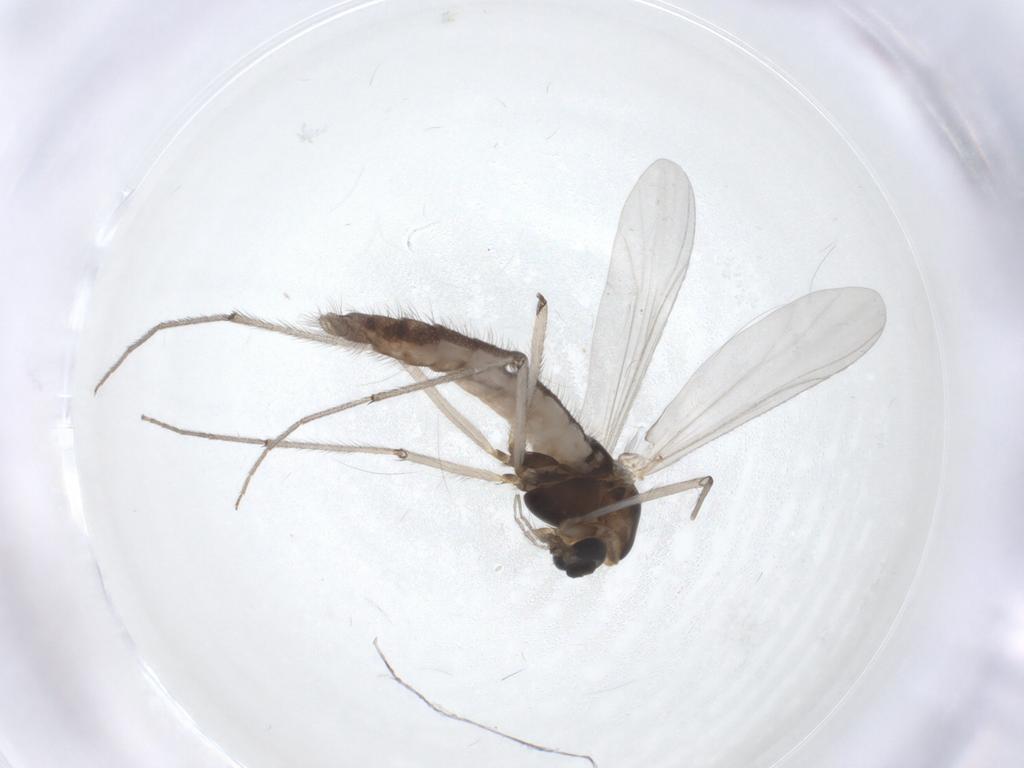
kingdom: Animalia
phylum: Arthropoda
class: Insecta
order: Diptera
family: Chironomidae
